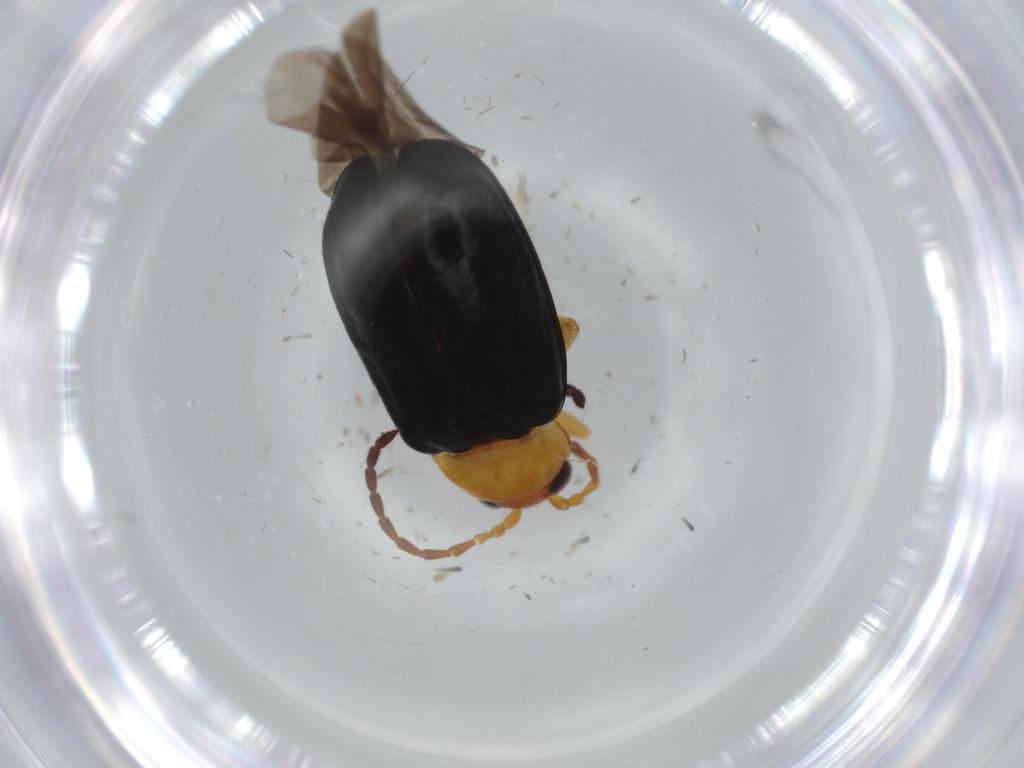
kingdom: Animalia
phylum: Arthropoda
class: Insecta
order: Coleoptera
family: Chrysomelidae
